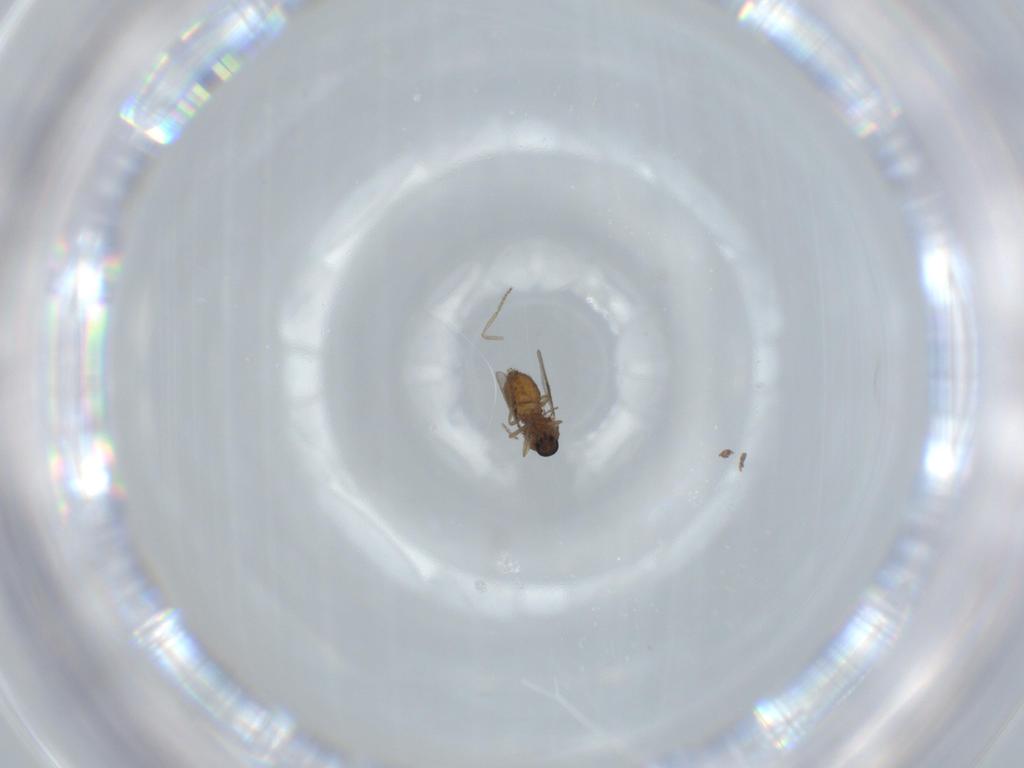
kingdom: Animalia
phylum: Arthropoda
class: Insecta
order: Diptera
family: Ceratopogonidae
